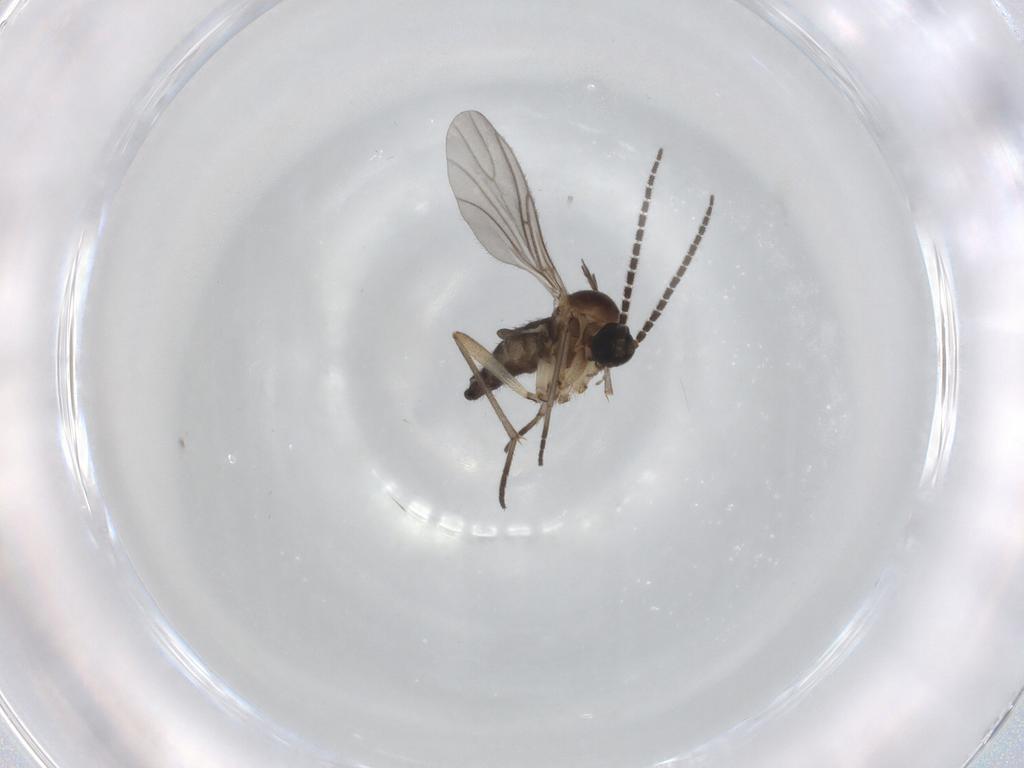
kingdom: Animalia
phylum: Arthropoda
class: Insecta
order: Diptera
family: Sciaridae
